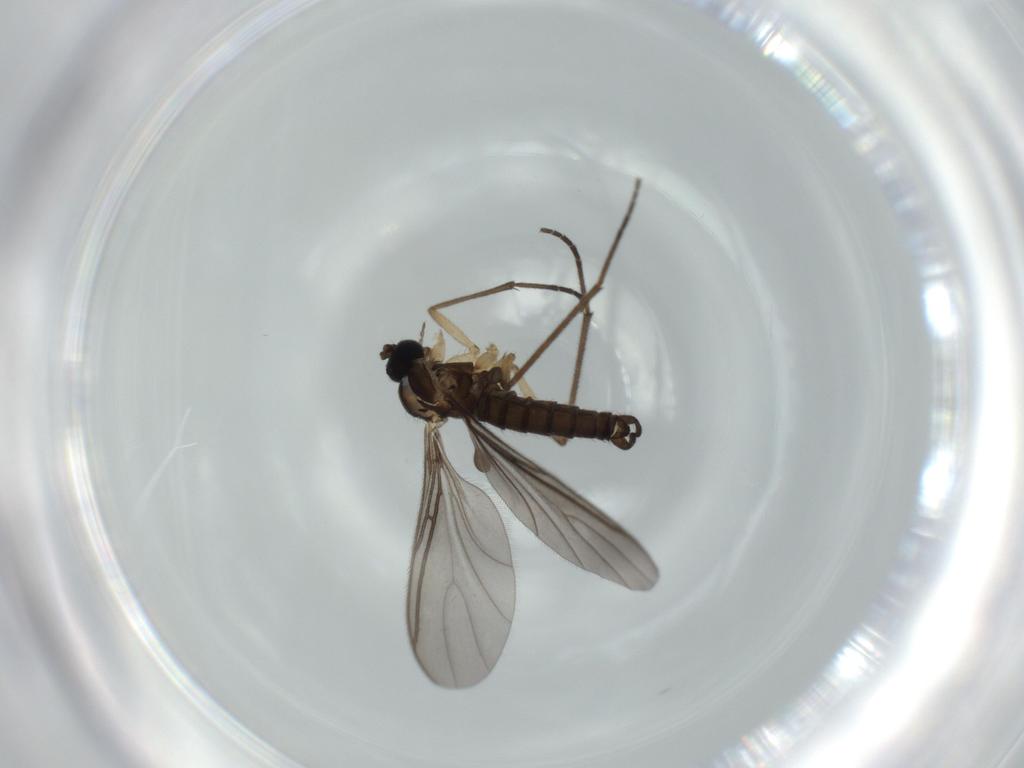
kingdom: Animalia
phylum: Arthropoda
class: Insecta
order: Diptera
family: Sciaridae
